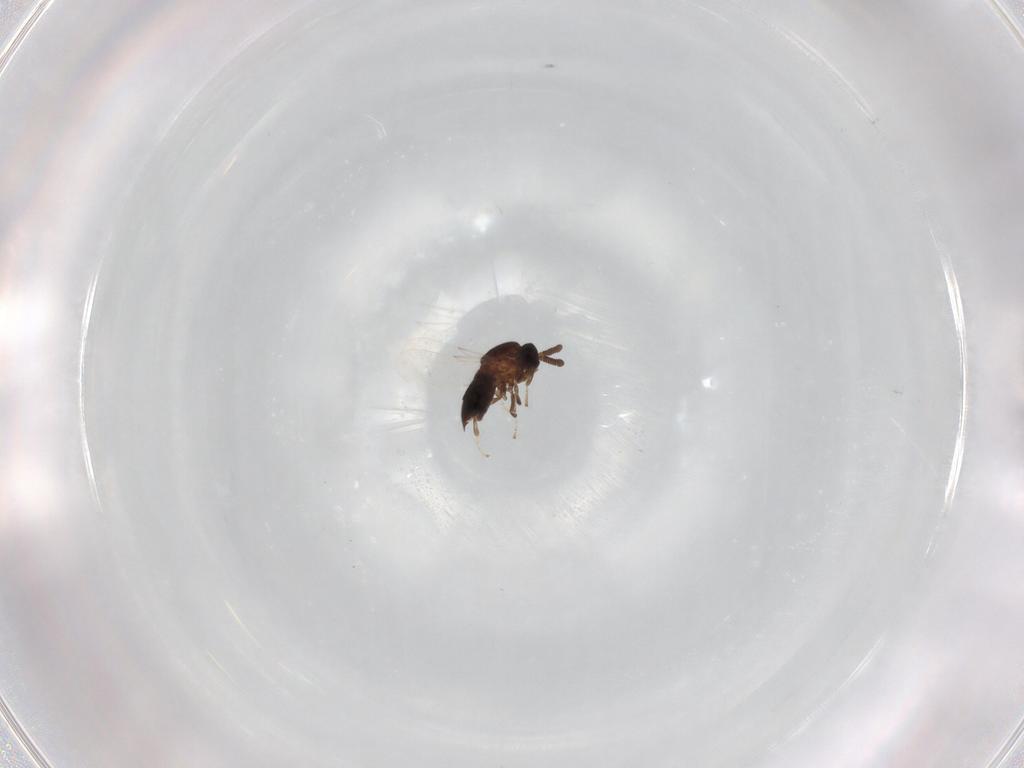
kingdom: Animalia
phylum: Arthropoda
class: Insecta
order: Diptera
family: Scatopsidae
